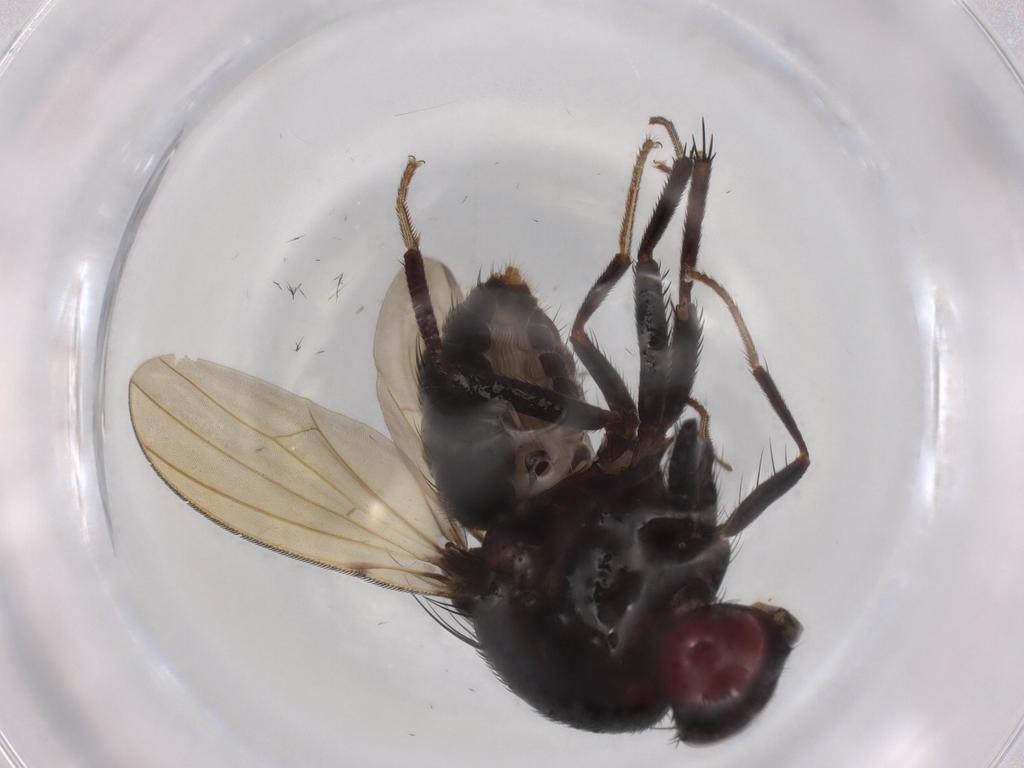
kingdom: Animalia
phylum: Arthropoda
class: Insecta
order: Diptera
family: Lauxaniidae
